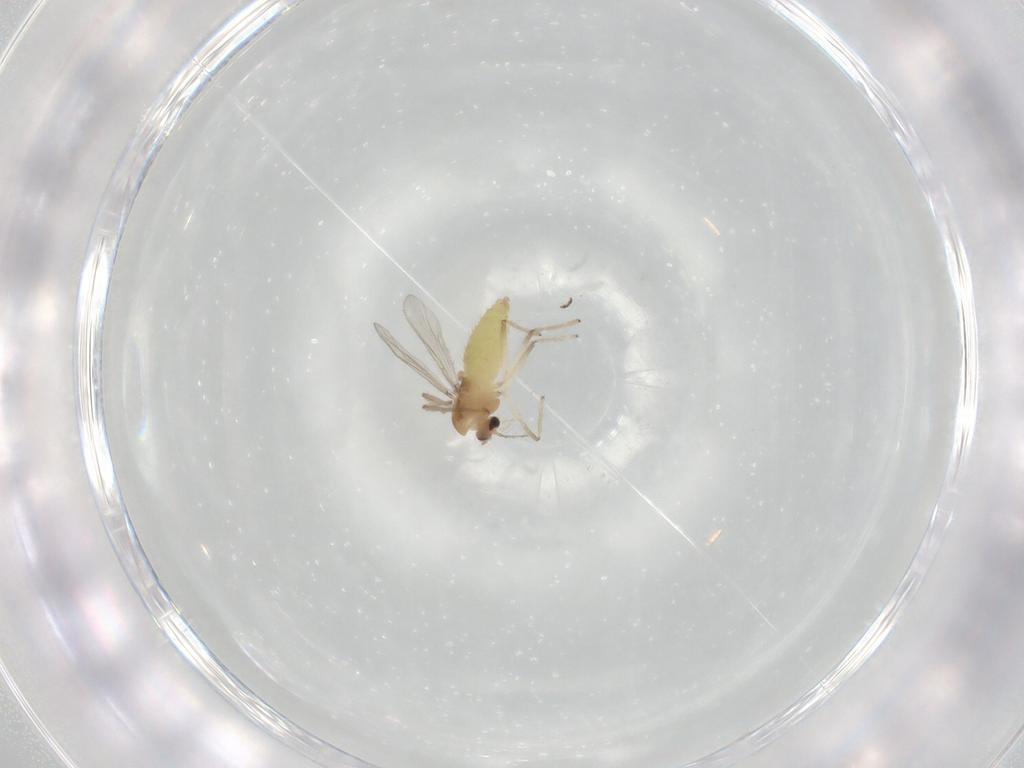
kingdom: Animalia
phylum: Arthropoda
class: Insecta
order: Diptera
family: Chironomidae
